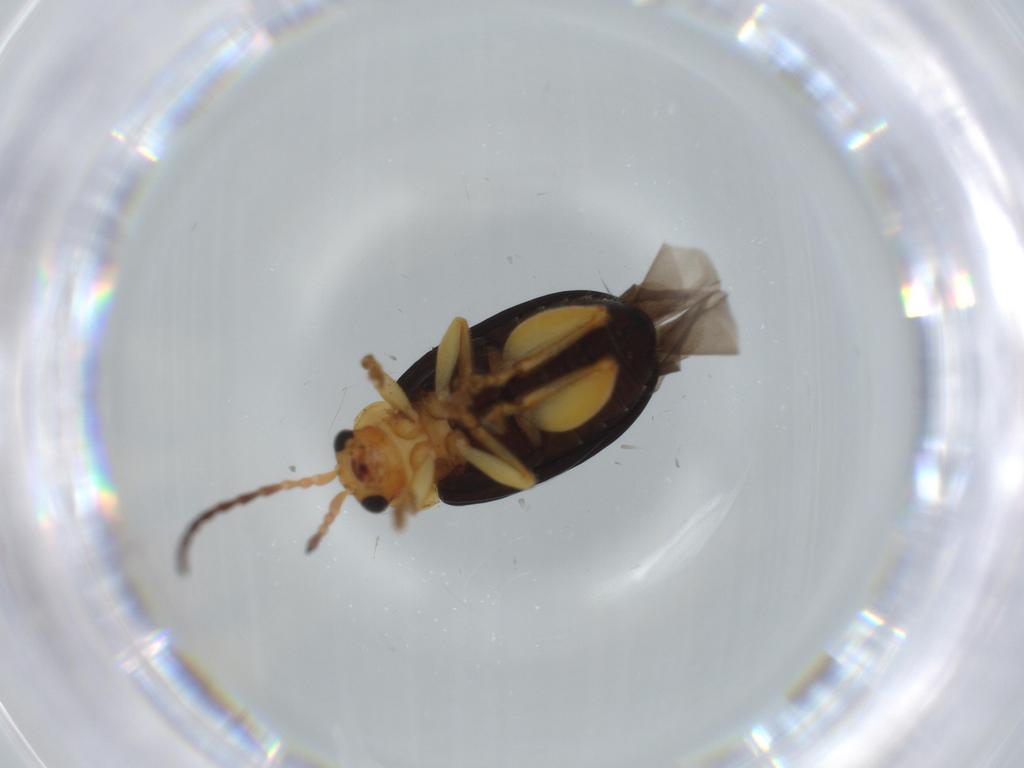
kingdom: Animalia
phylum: Arthropoda
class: Insecta
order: Coleoptera
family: Chrysomelidae
